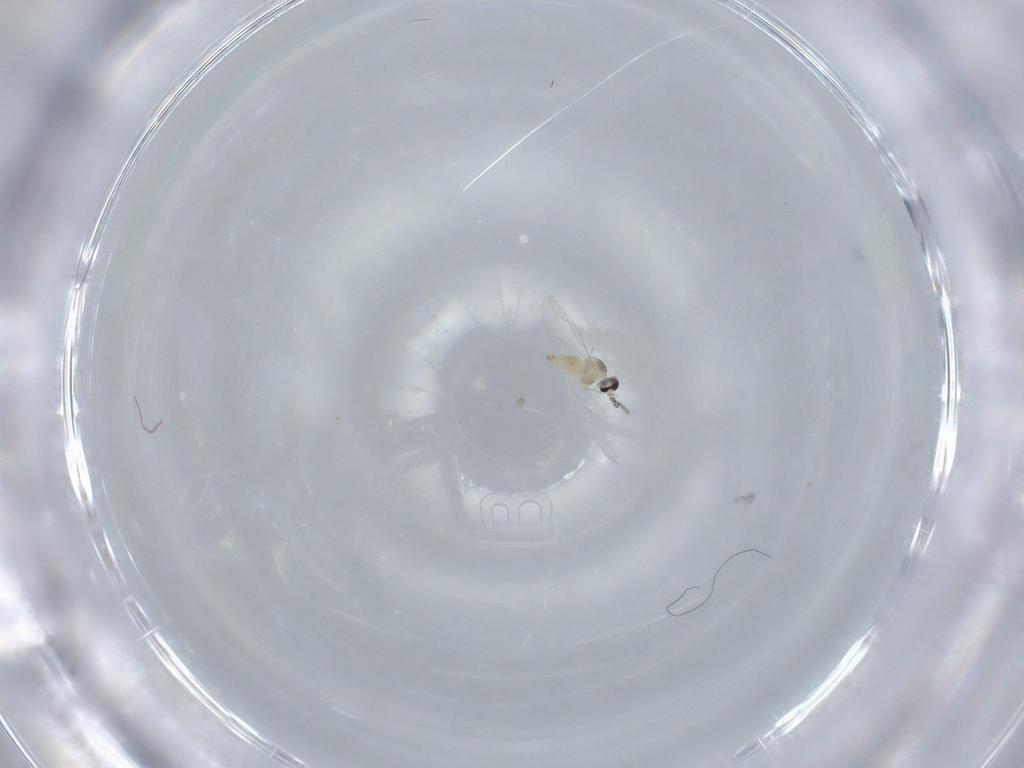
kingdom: Animalia
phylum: Arthropoda
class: Insecta
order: Diptera
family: Cecidomyiidae
